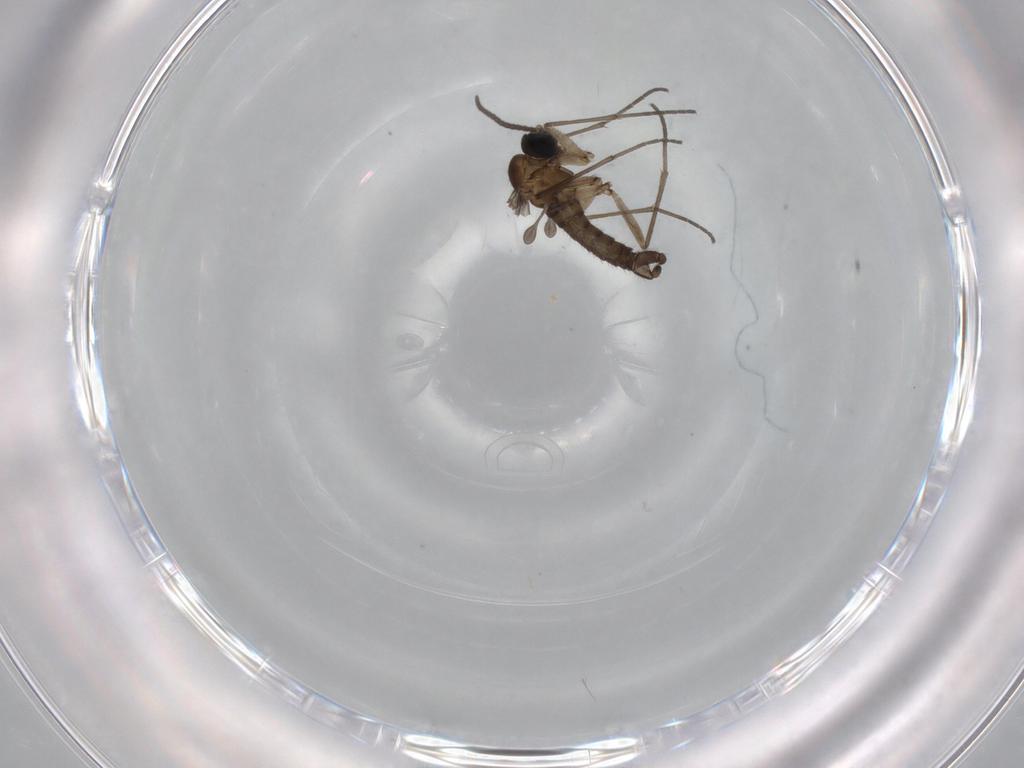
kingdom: Animalia
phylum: Arthropoda
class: Insecta
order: Diptera
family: Sciaridae
